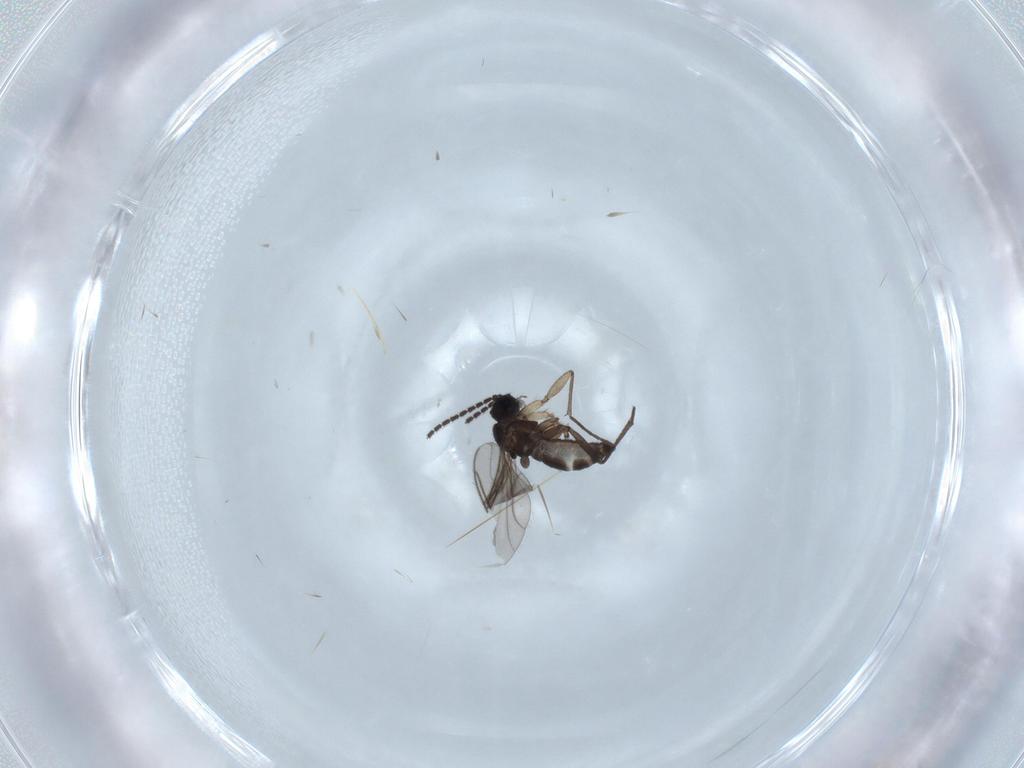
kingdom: Animalia
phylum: Arthropoda
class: Insecta
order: Diptera
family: Sciaridae
